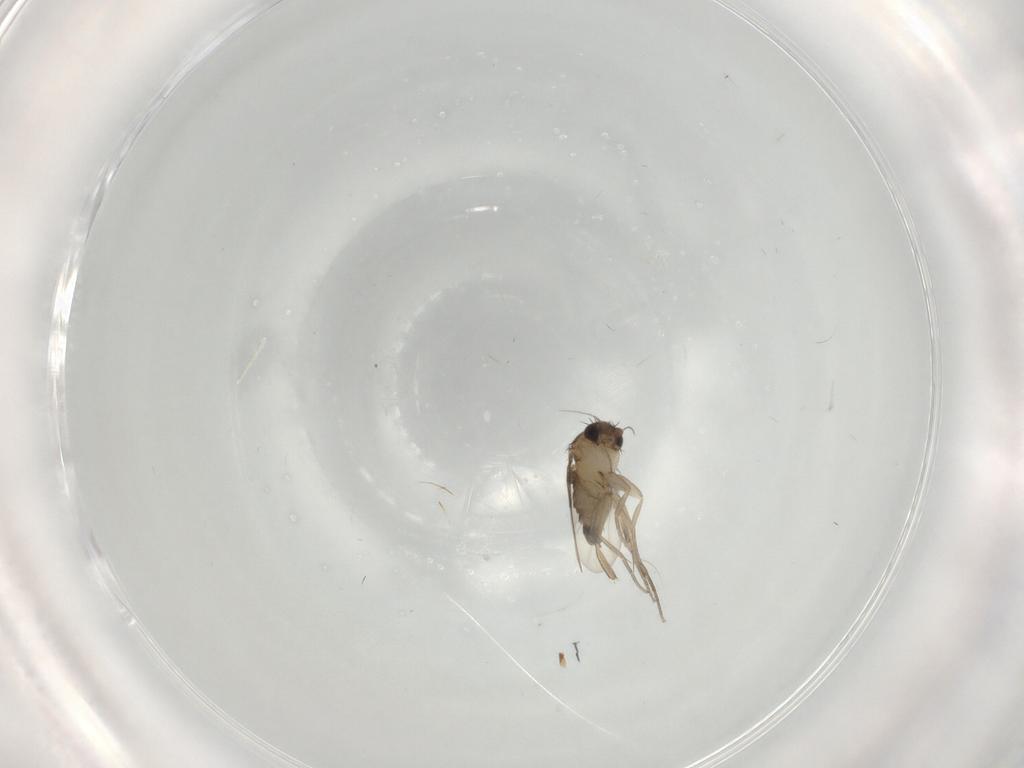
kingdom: Animalia
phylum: Arthropoda
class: Insecta
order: Diptera
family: Phoridae
